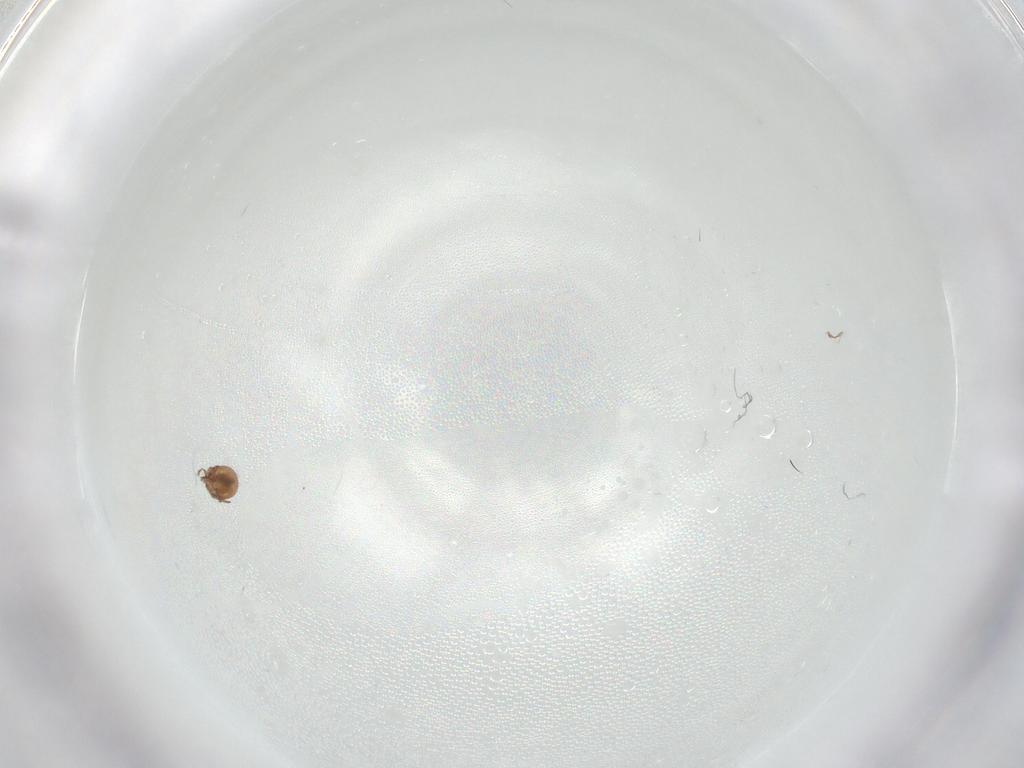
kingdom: Animalia
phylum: Arthropoda
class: Arachnida
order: Sarcoptiformes
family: Oribatulidae
